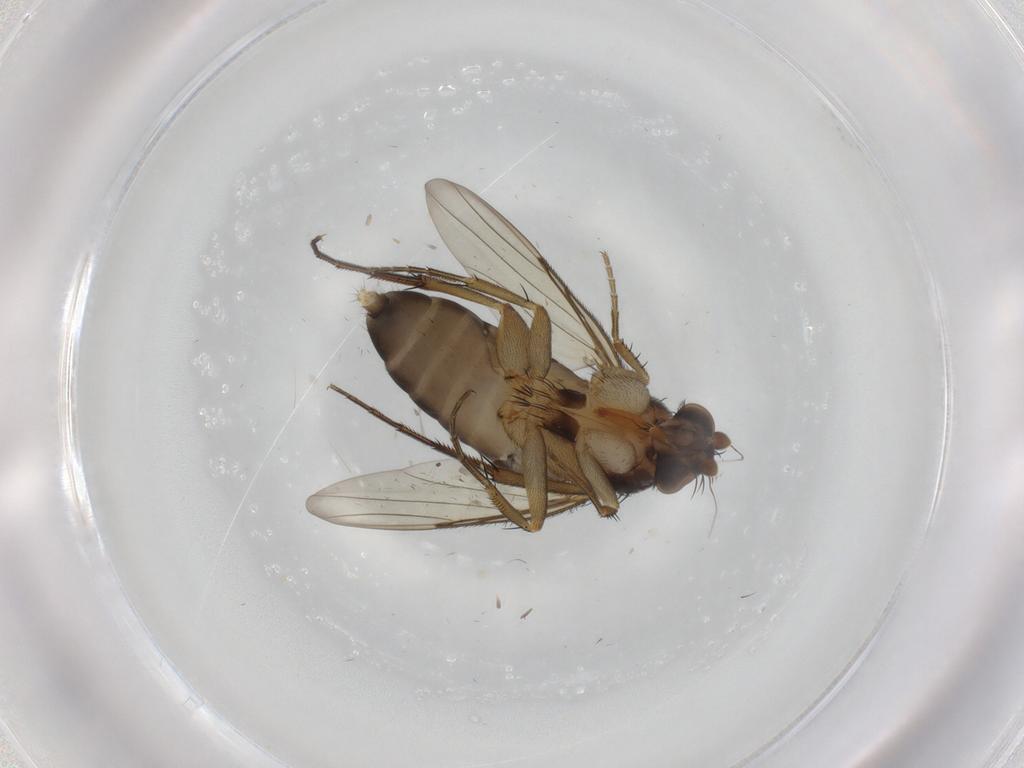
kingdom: Animalia
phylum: Arthropoda
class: Insecta
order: Diptera
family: Phoridae
